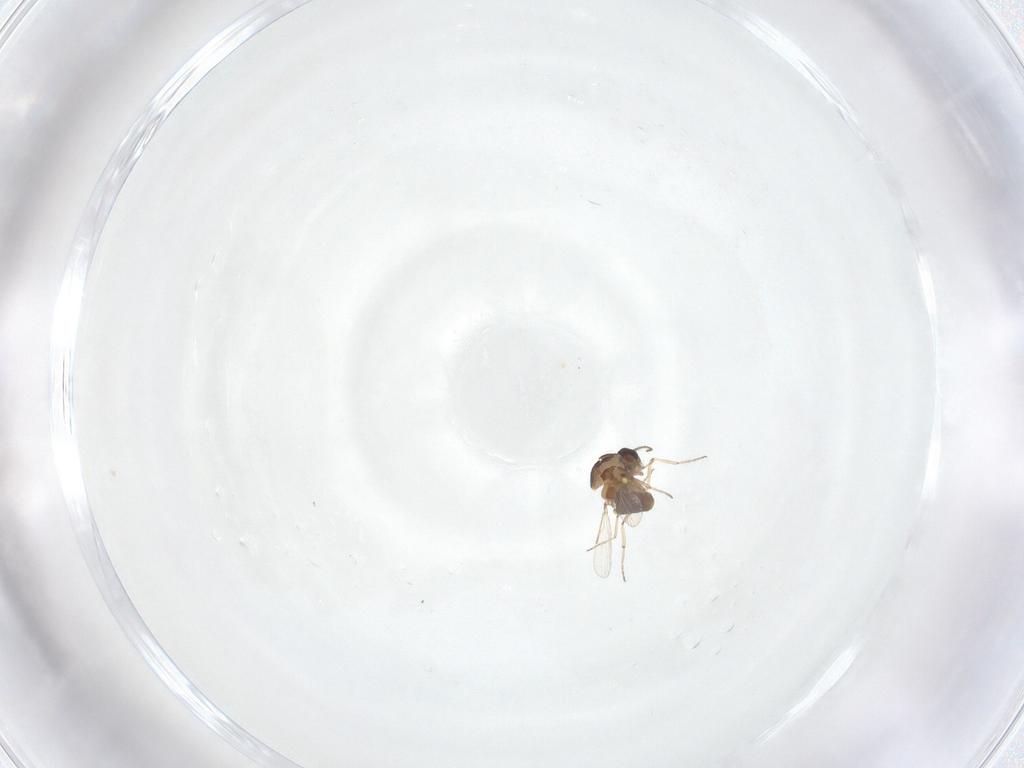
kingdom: Animalia
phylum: Arthropoda
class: Insecta
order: Diptera
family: Ceratopogonidae
